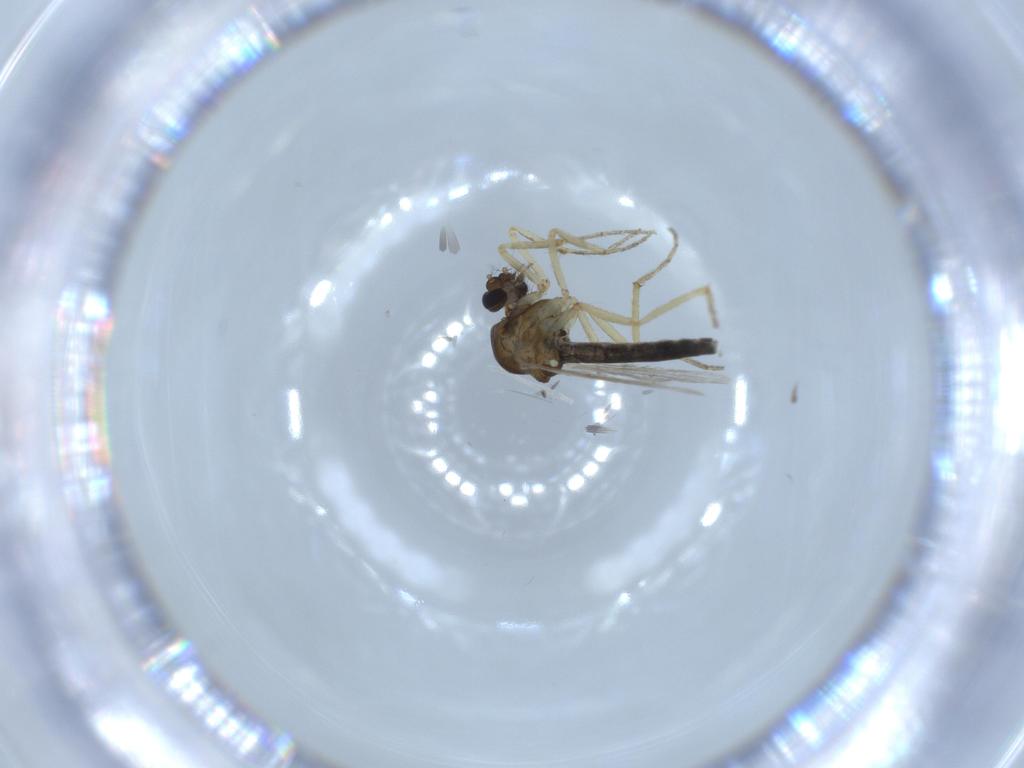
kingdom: Animalia
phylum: Arthropoda
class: Insecta
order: Diptera
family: Ceratopogonidae
